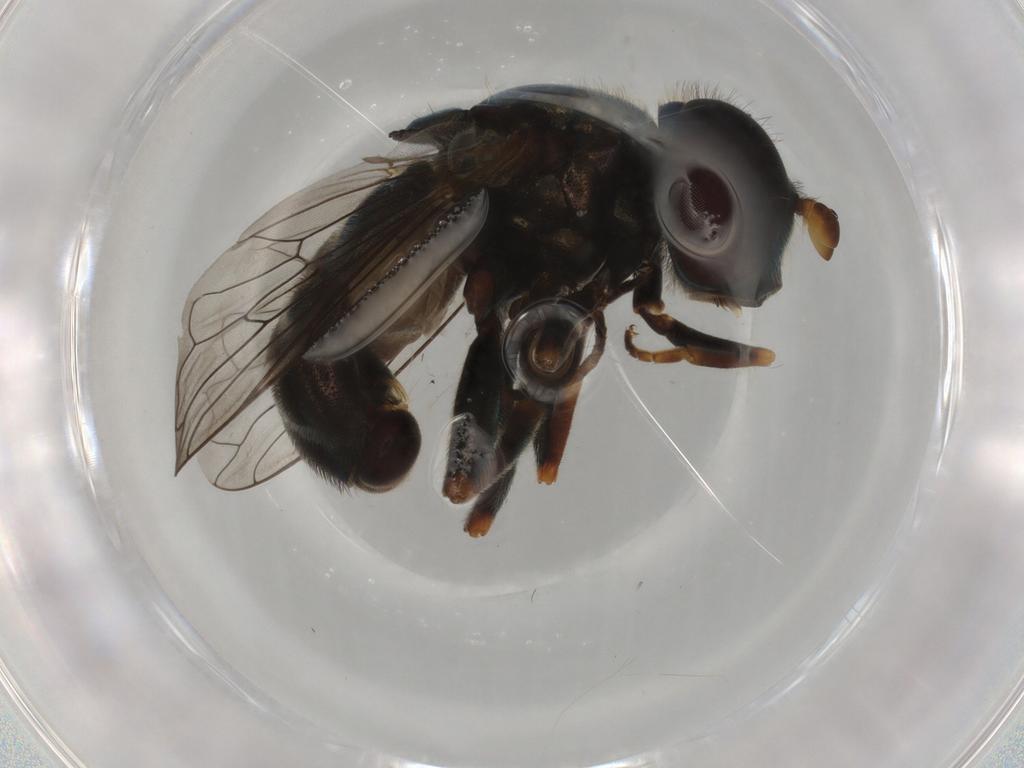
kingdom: Animalia
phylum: Arthropoda
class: Insecta
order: Diptera
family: Syrphidae
